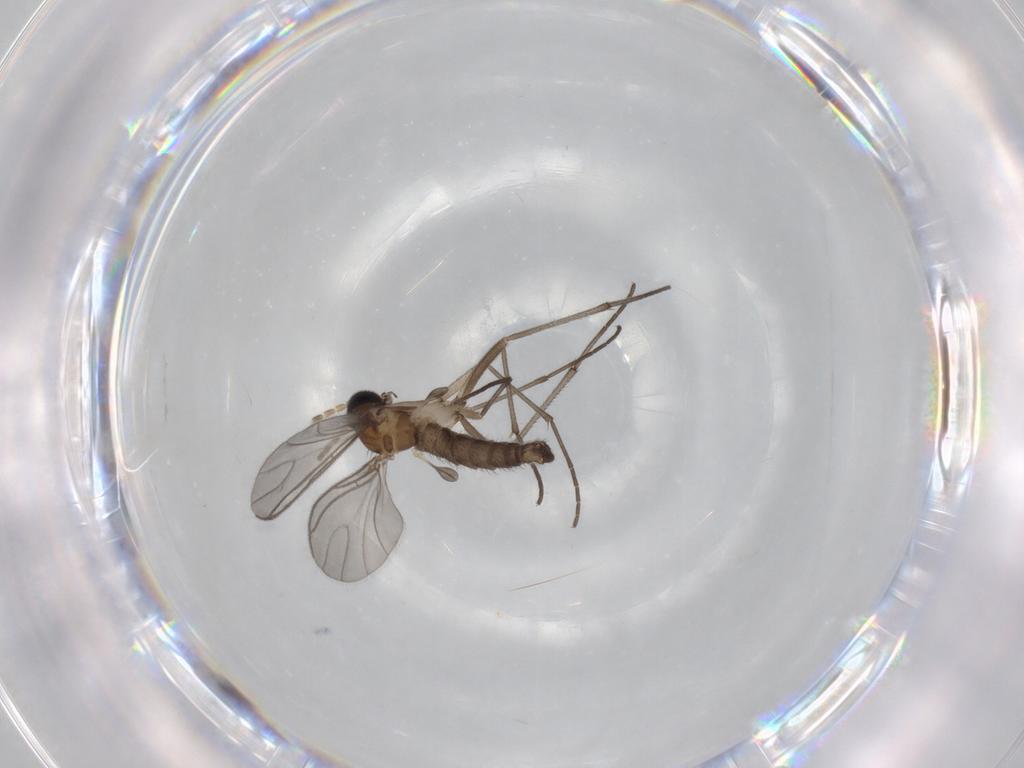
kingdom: Animalia
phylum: Arthropoda
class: Insecta
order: Diptera
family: Sciaridae
